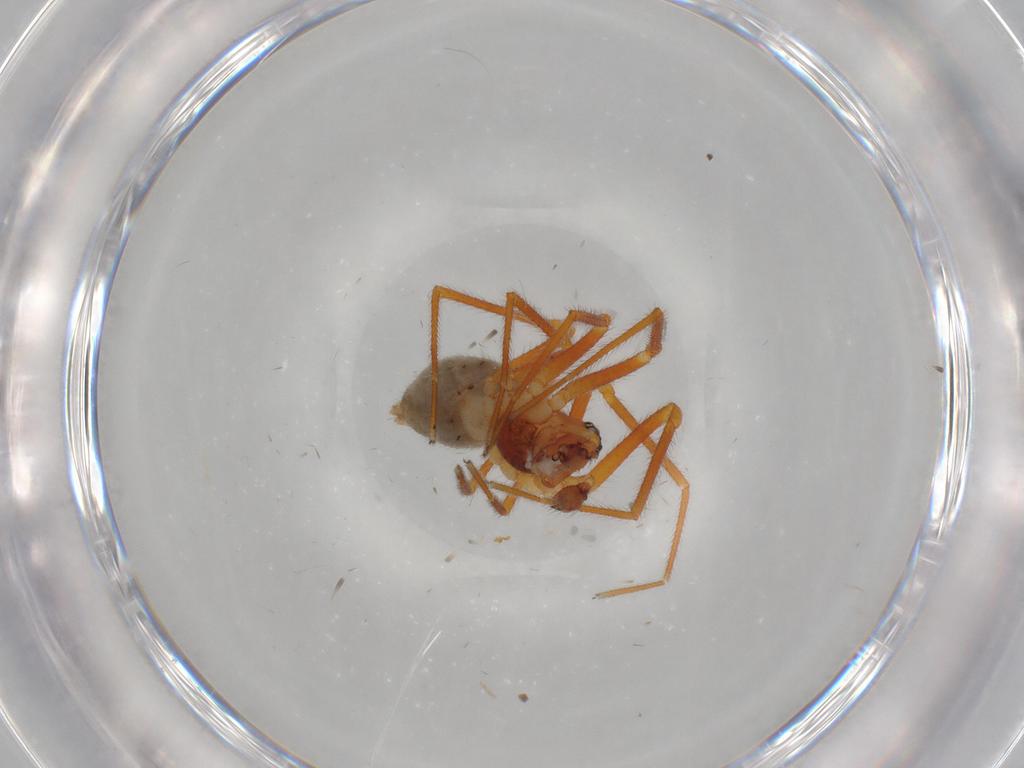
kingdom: Animalia
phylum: Arthropoda
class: Arachnida
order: Araneae
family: Linyphiidae
